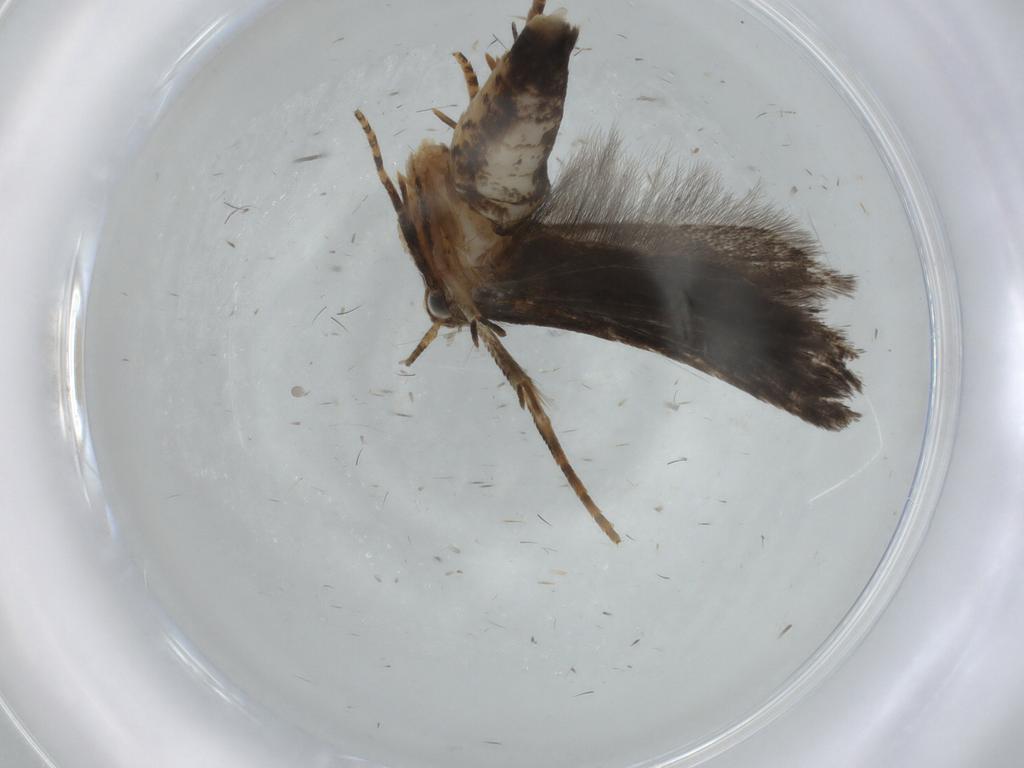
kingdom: Animalia
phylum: Arthropoda
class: Insecta
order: Lepidoptera
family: Gelechiidae
